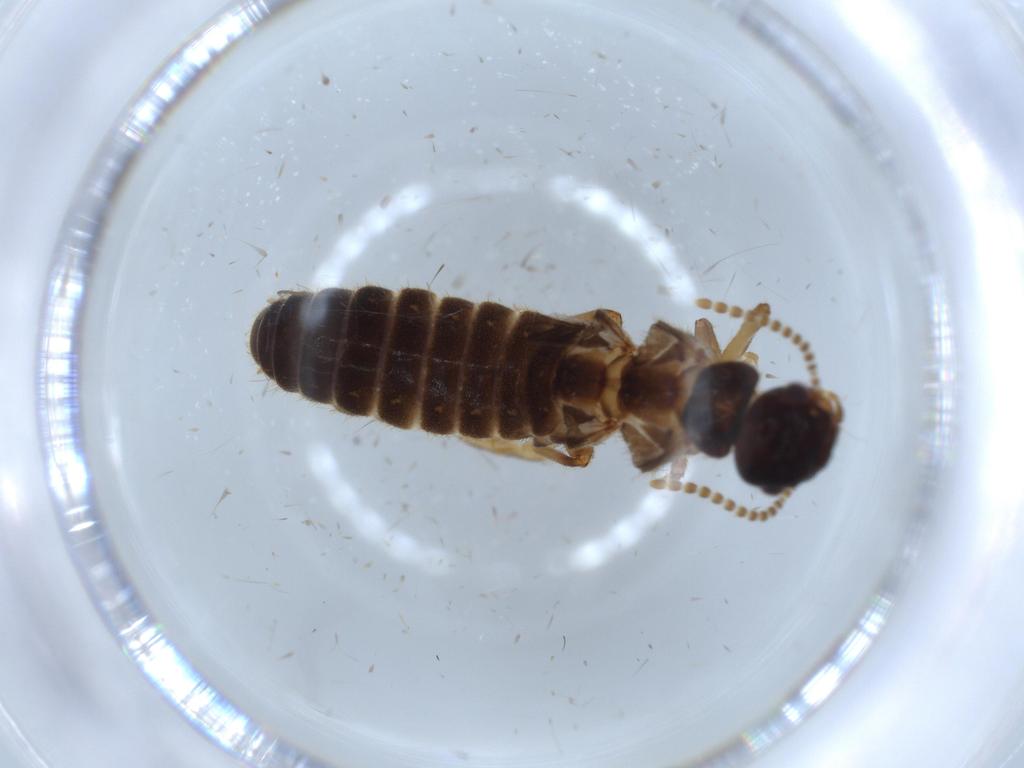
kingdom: Animalia
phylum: Arthropoda
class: Insecta
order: Blattodea
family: Termitidae
